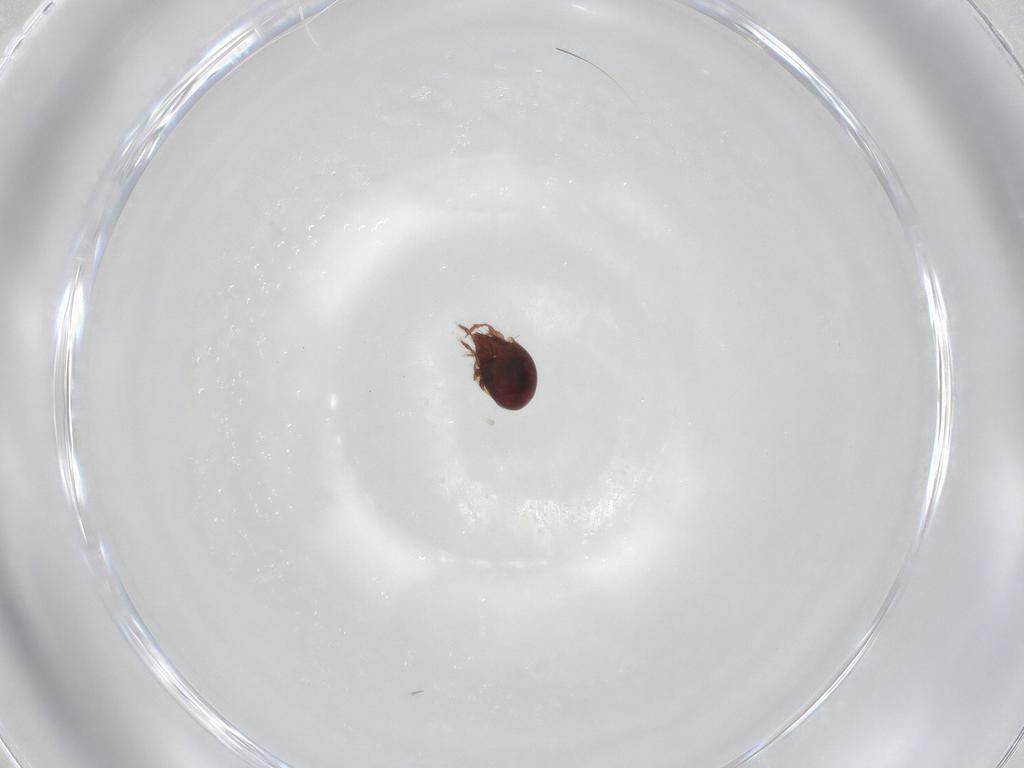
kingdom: Animalia
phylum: Arthropoda
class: Arachnida
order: Sarcoptiformes
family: Ceratozetidae
